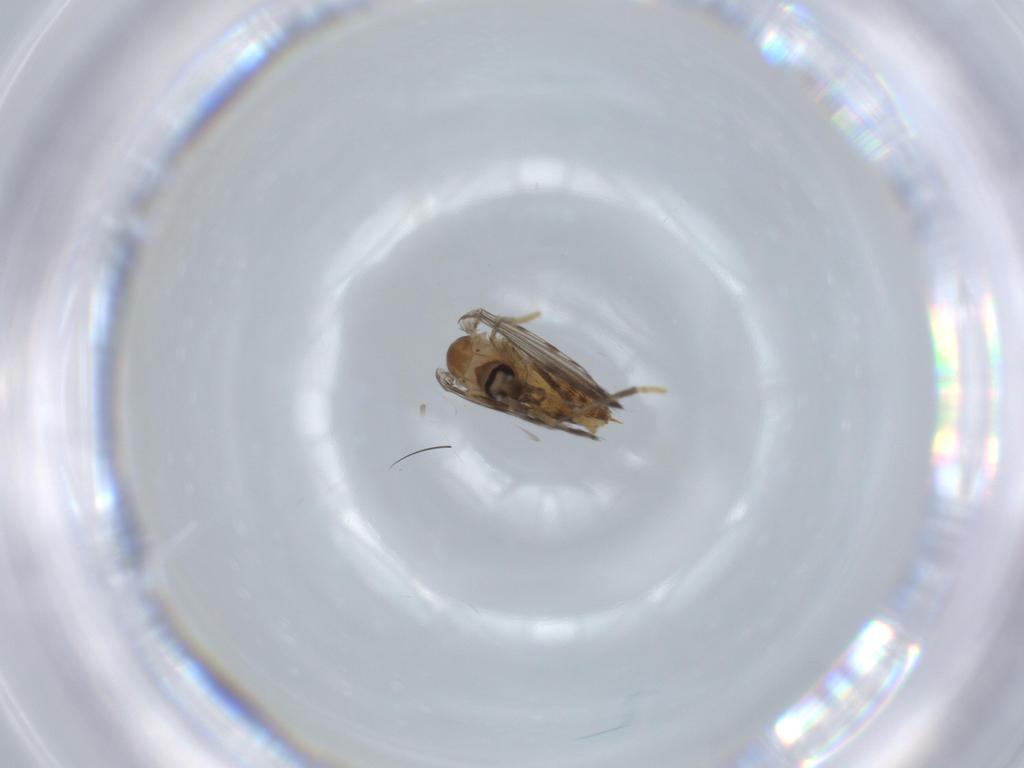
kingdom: Animalia
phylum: Arthropoda
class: Insecta
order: Diptera
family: Psychodidae
